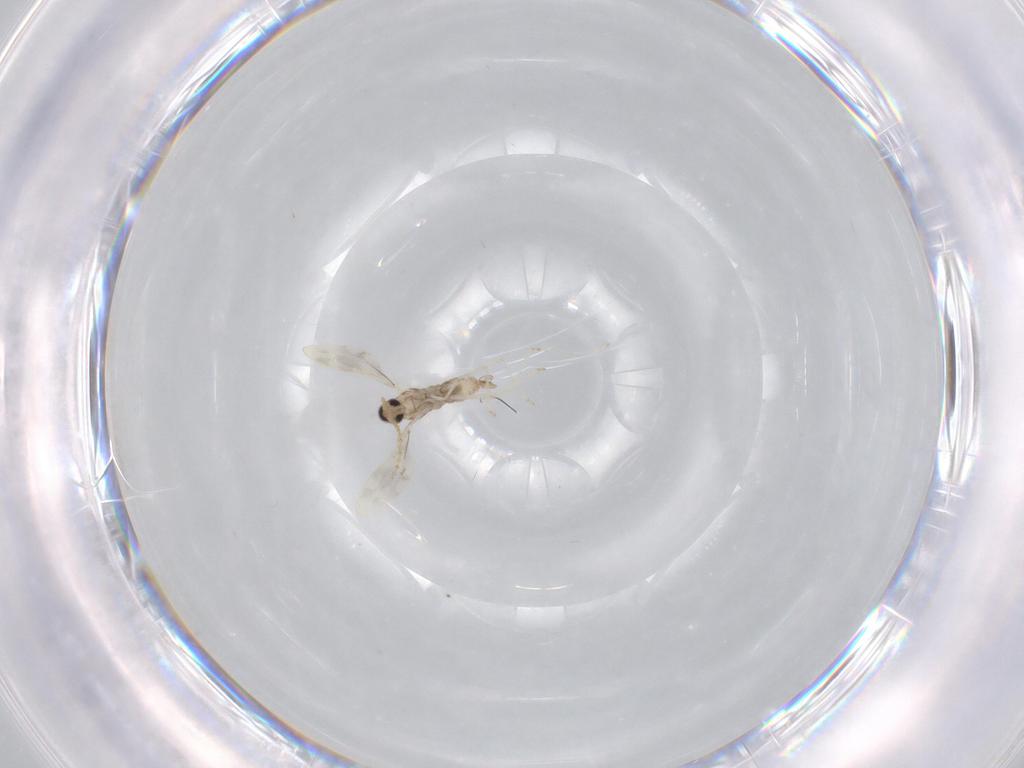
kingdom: Animalia
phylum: Arthropoda
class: Insecta
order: Diptera
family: Cecidomyiidae
